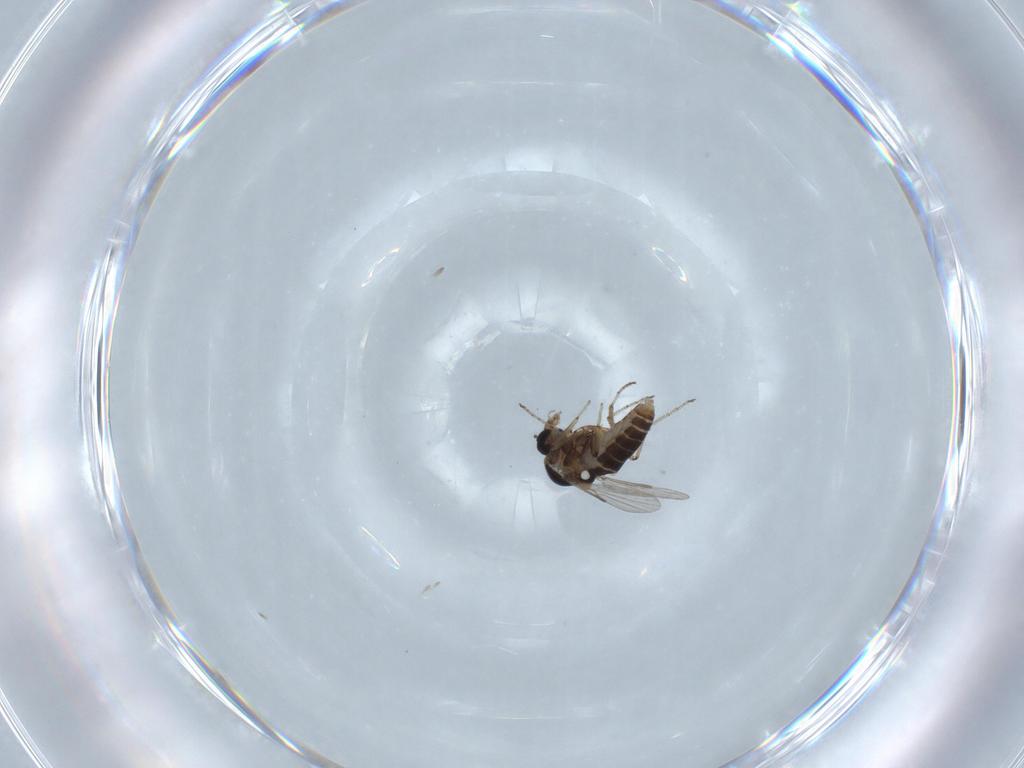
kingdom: Animalia
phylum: Arthropoda
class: Insecta
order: Diptera
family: Ceratopogonidae
